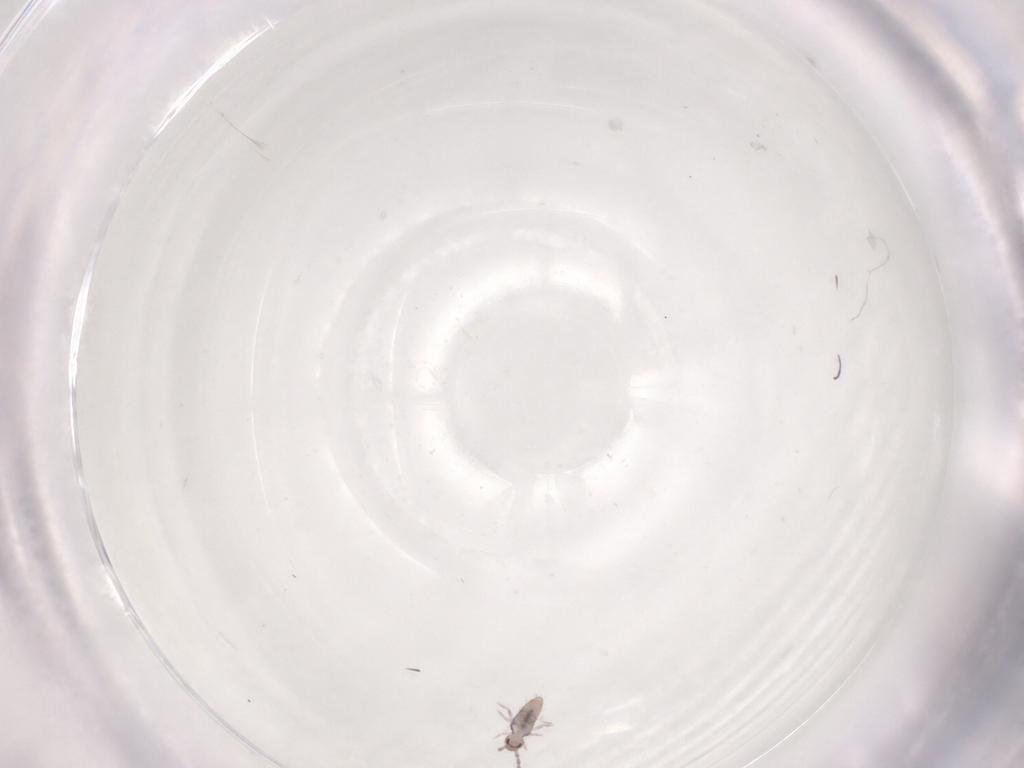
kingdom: Animalia
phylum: Arthropoda
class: Collembola
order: Entomobryomorpha
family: Entomobryidae
